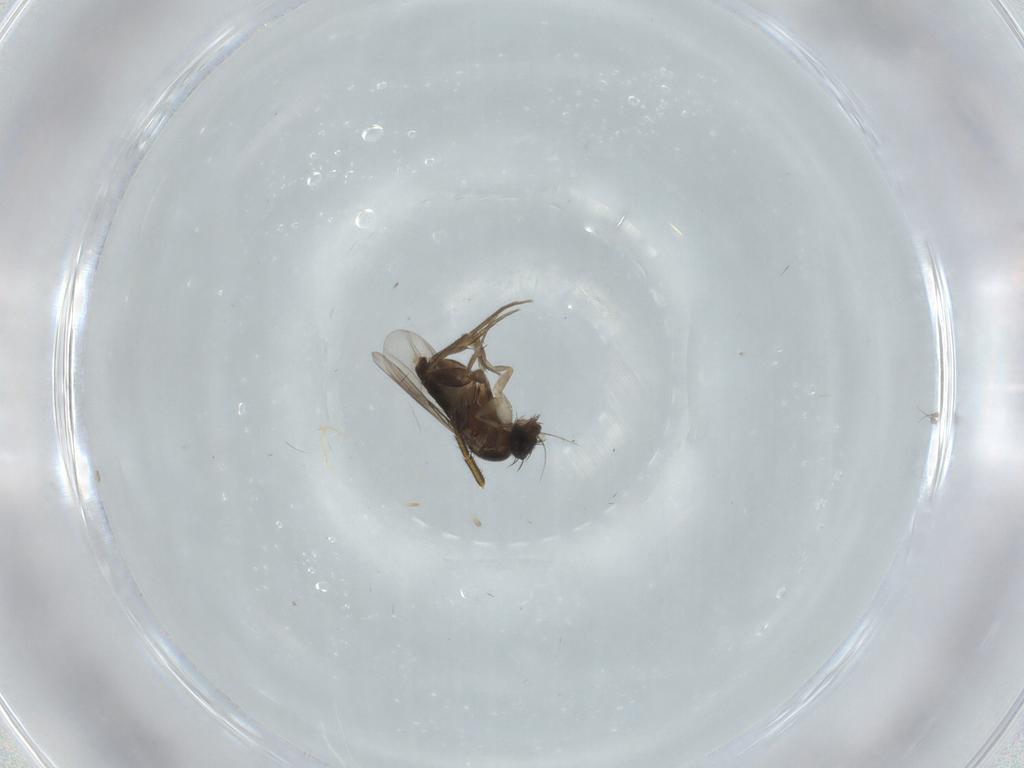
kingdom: Animalia
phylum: Arthropoda
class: Insecta
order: Diptera
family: Phoridae
